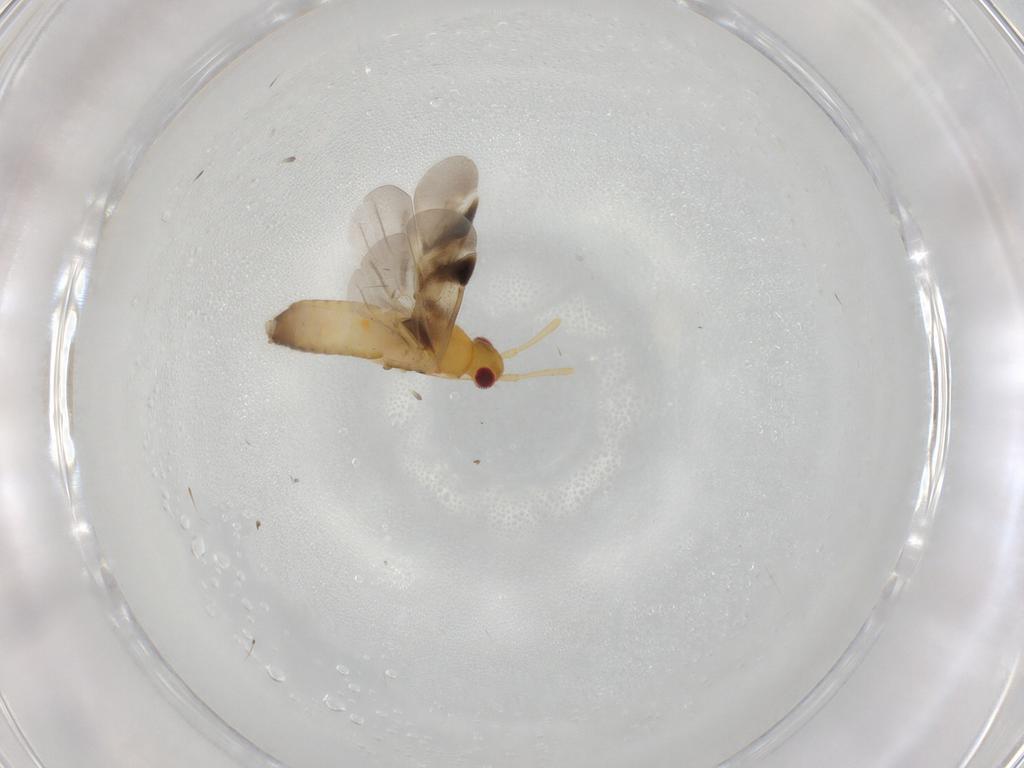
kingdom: Animalia
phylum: Arthropoda
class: Insecta
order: Hemiptera
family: Miridae
